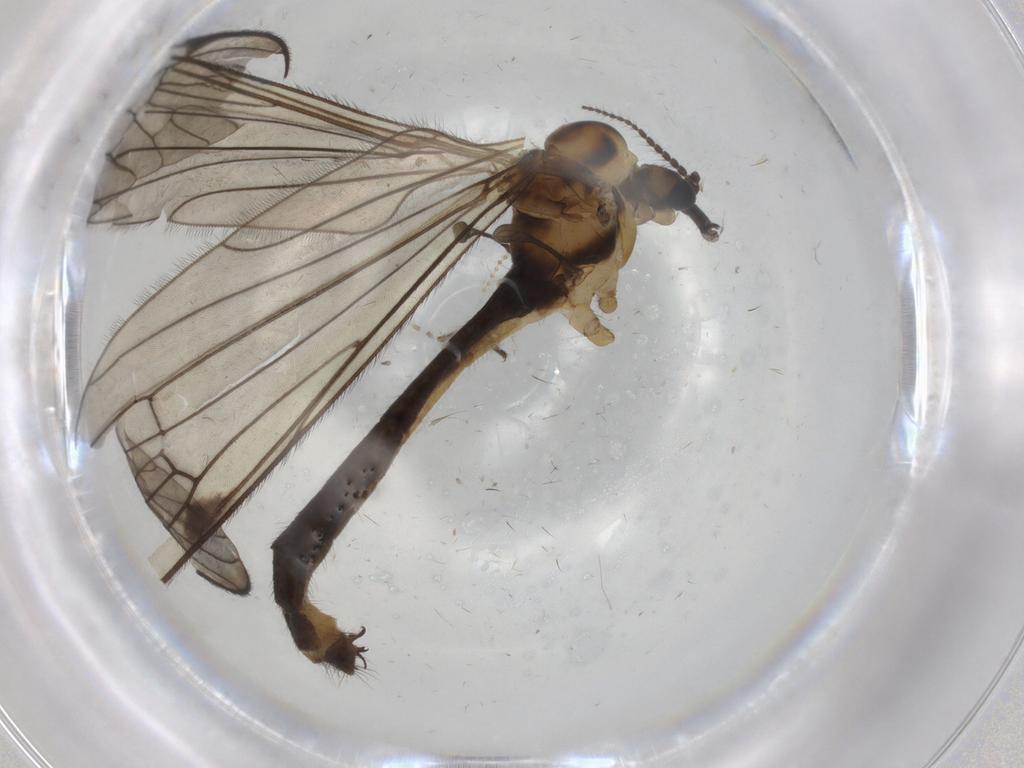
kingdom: Animalia
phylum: Arthropoda
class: Insecta
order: Diptera
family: Limoniidae
